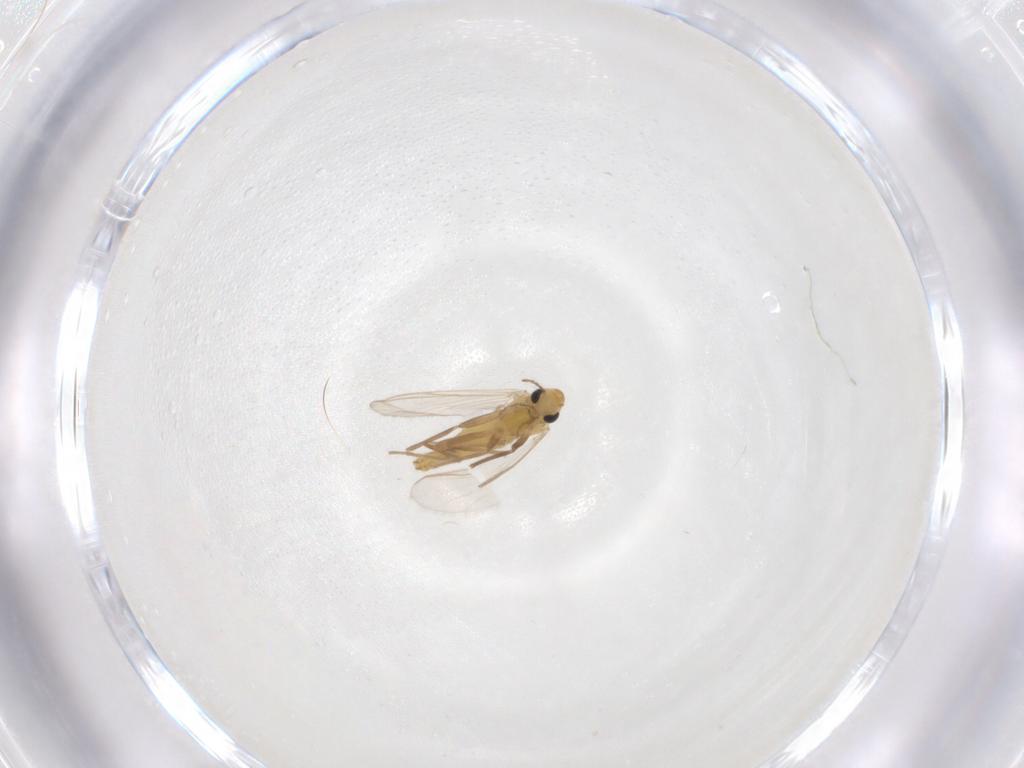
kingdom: Animalia
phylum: Arthropoda
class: Insecta
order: Diptera
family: Chironomidae
